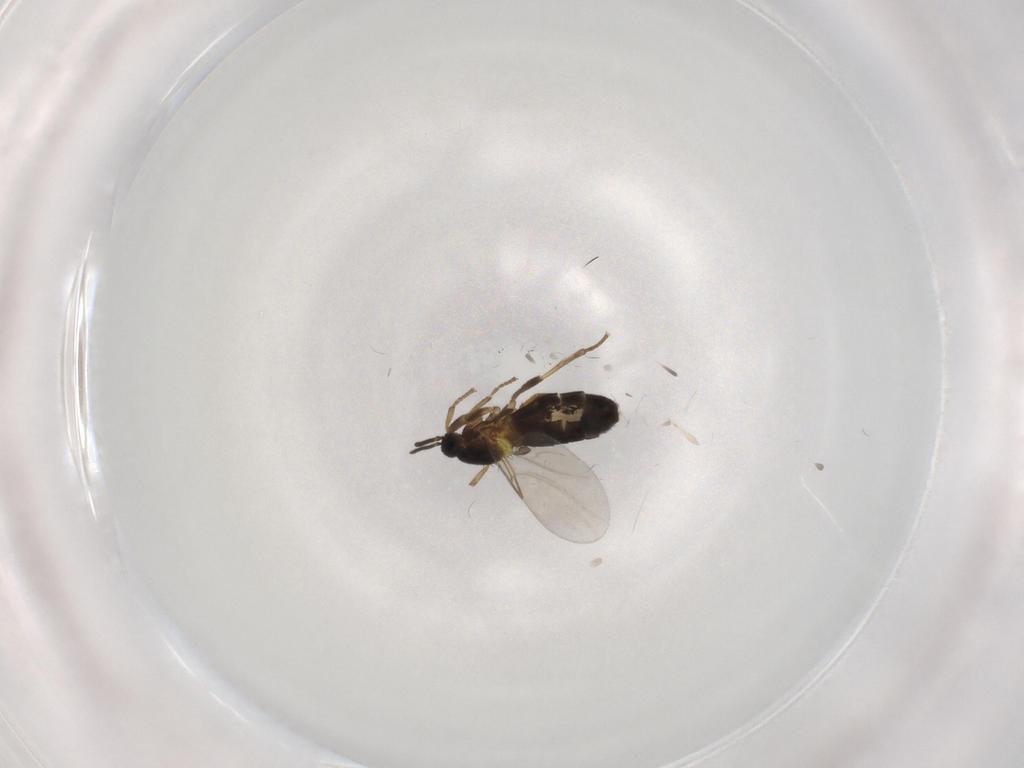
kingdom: Animalia
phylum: Arthropoda
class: Insecta
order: Diptera
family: Scatopsidae
